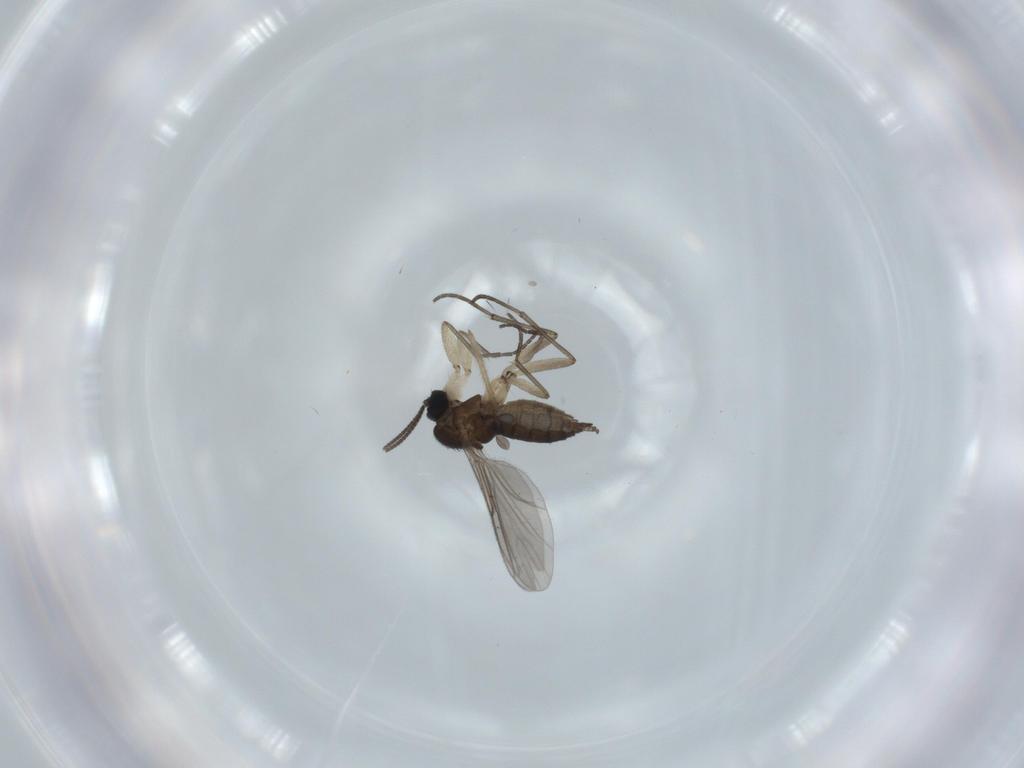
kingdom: Animalia
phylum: Arthropoda
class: Insecta
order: Diptera
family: Sciaridae
